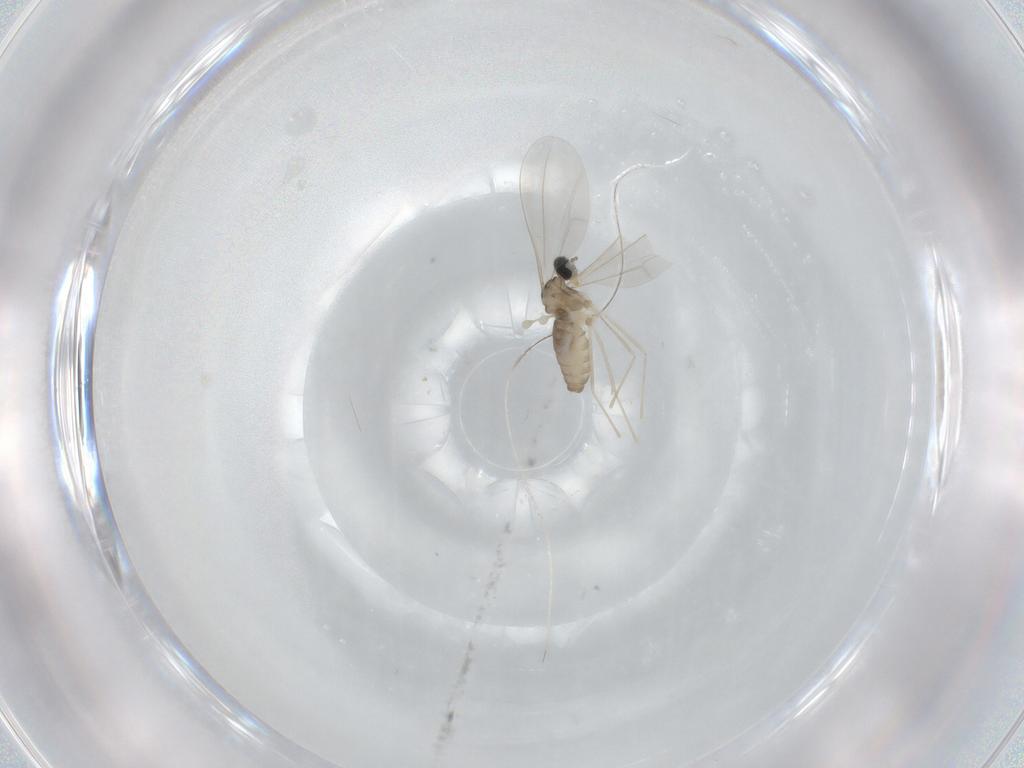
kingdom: Animalia
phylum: Arthropoda
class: Insecta
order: Diptera
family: Cecidomyiidae
